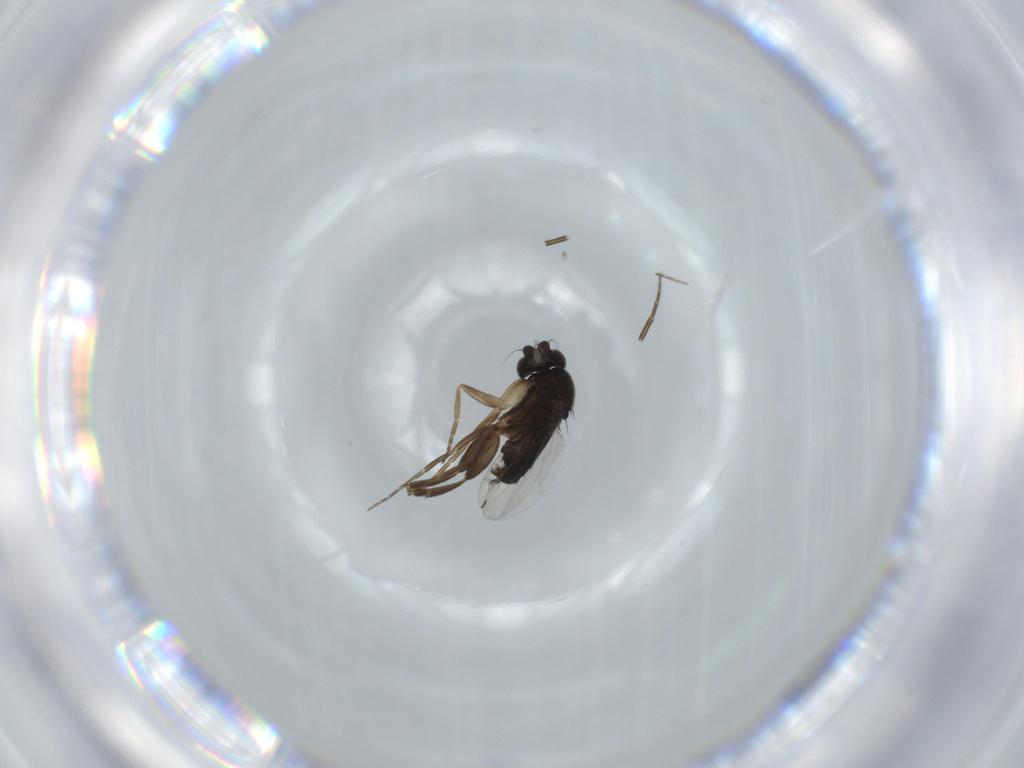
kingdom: Animalia
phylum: Arthropoda
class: Insecta
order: Diptera
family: Phoridae
